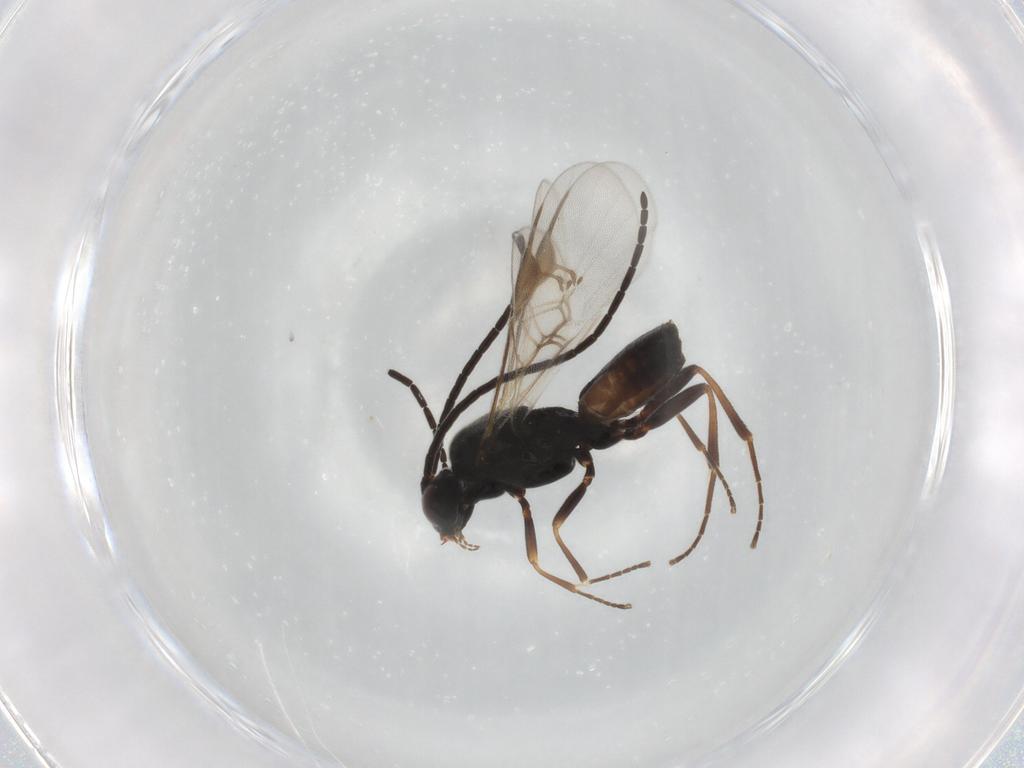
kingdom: Animalia
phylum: Arthropoda
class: Insecta
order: Hymenoptera
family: Braconidae
